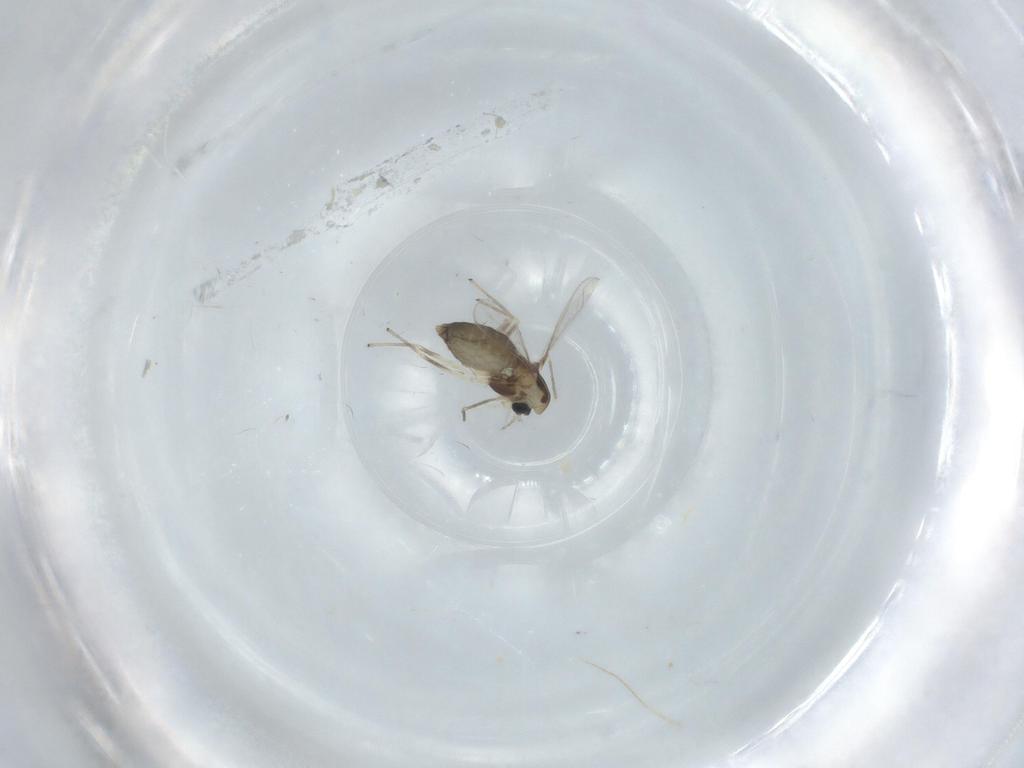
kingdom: Animalia
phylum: Arthropoda
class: Insecta
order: Diptera
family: Chironomidae
